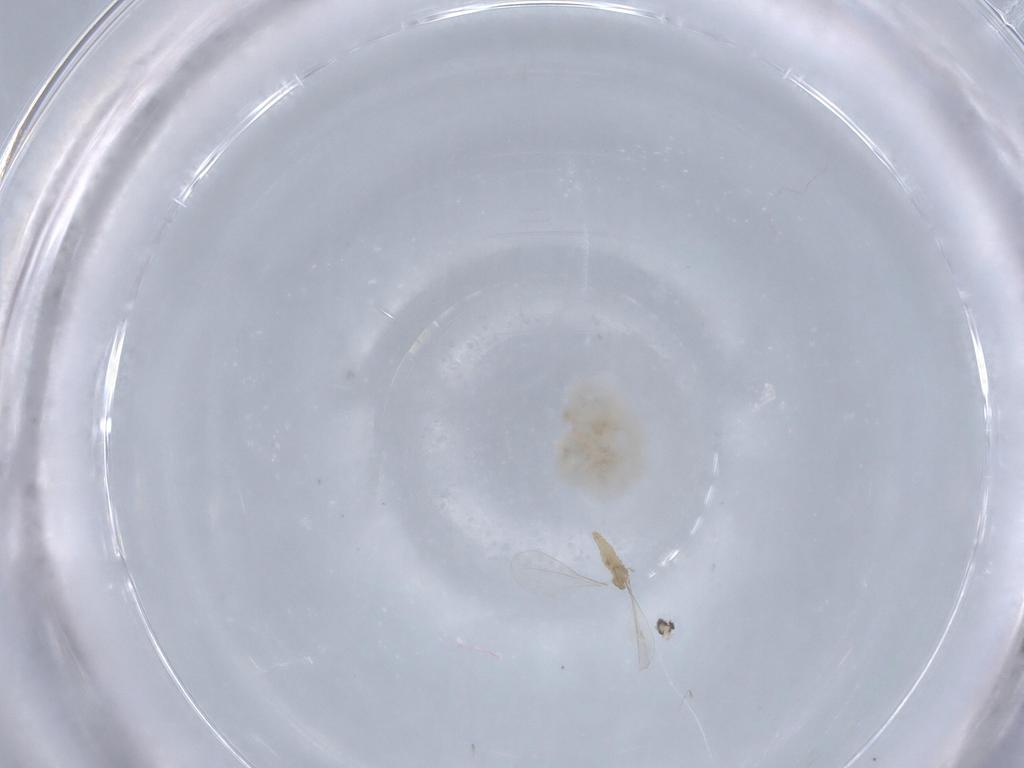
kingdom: Animalia
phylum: Arthropoda
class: Insecta
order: Diptera
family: Cecidomyiidae
